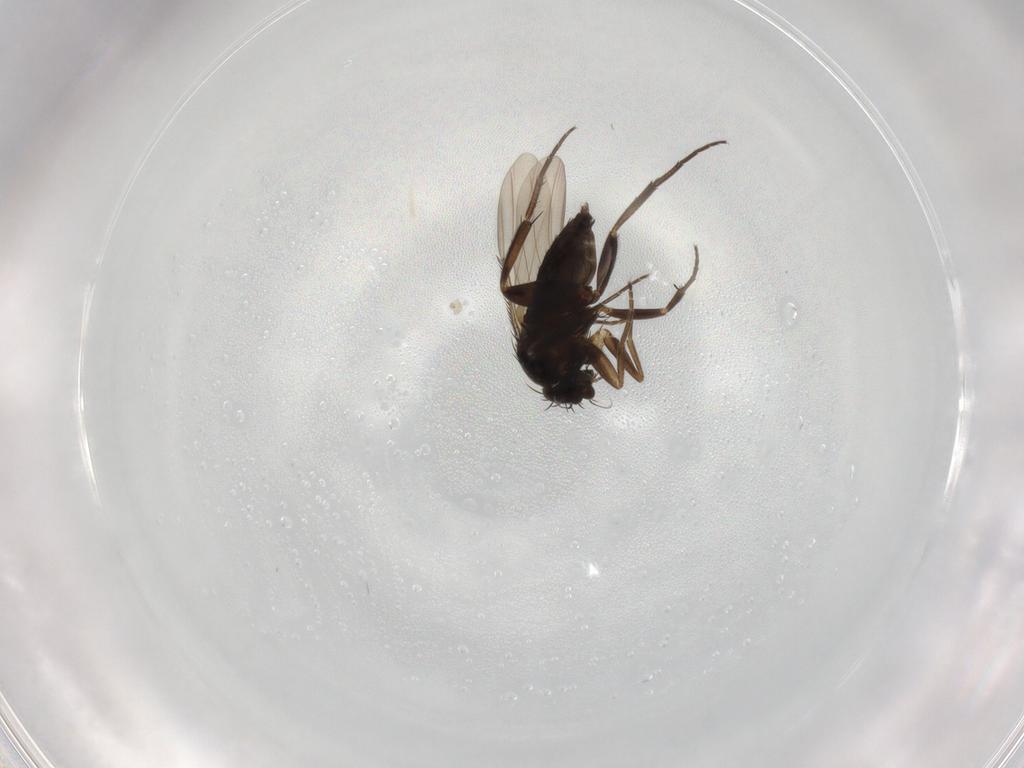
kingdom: Animalia
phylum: Arthropoda
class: Insecta
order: Diptera
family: Phoridae
